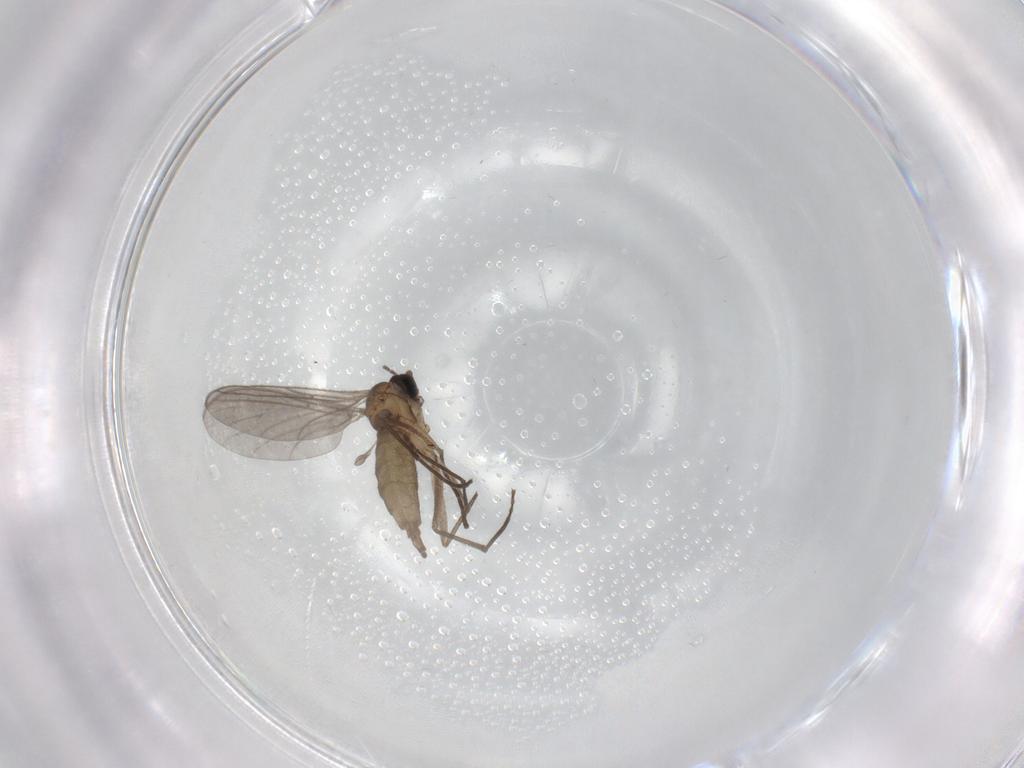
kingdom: Animalia
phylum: Arthropoda
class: Insecta
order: Diptera
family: Sciaridae
